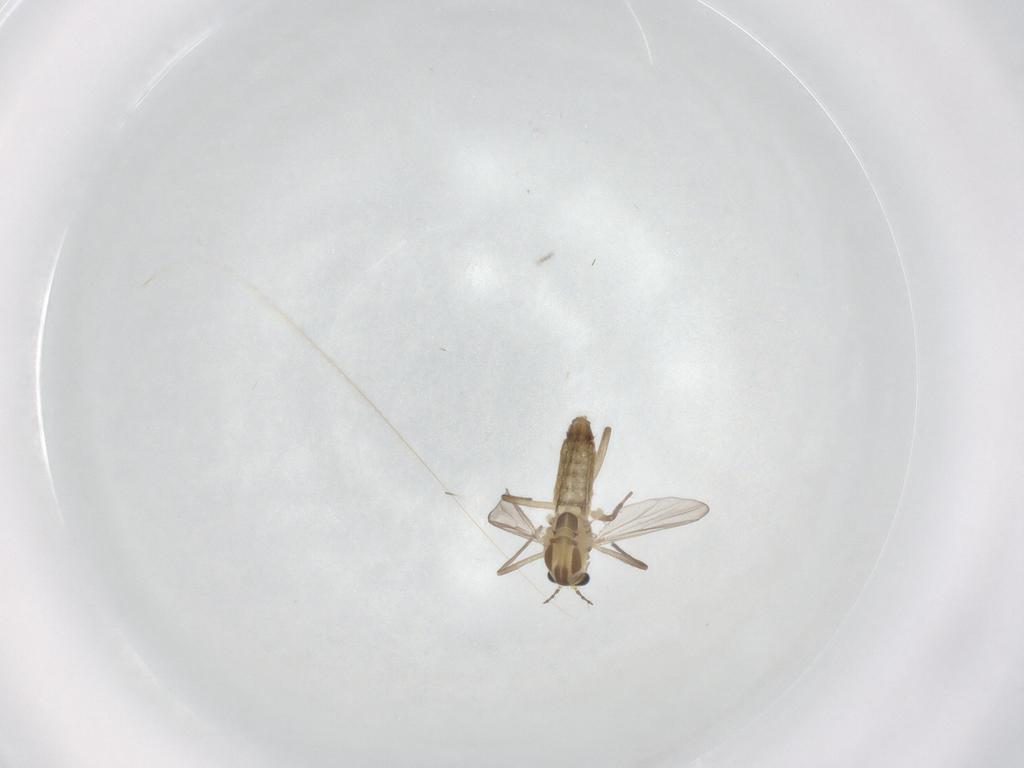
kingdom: Animalia
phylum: Arthropoda
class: Insecta
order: Diptera
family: Chironomidae
